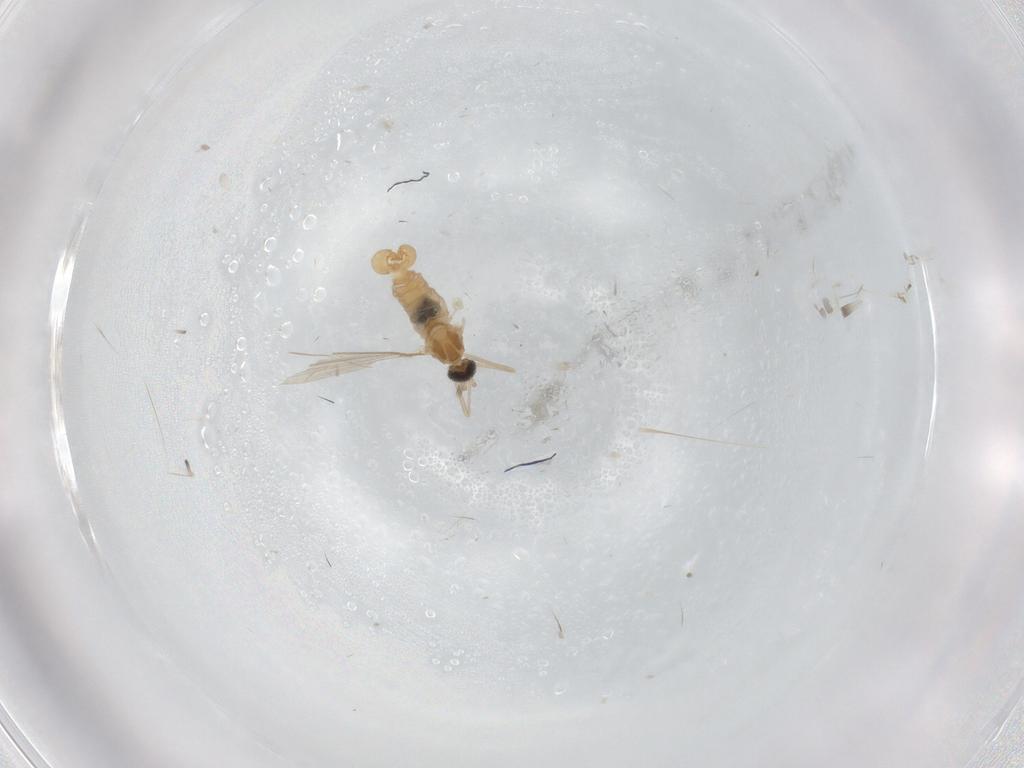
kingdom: Animalia
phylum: Arthropoda
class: Insecta
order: Diptera
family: Cecidomyiidae
